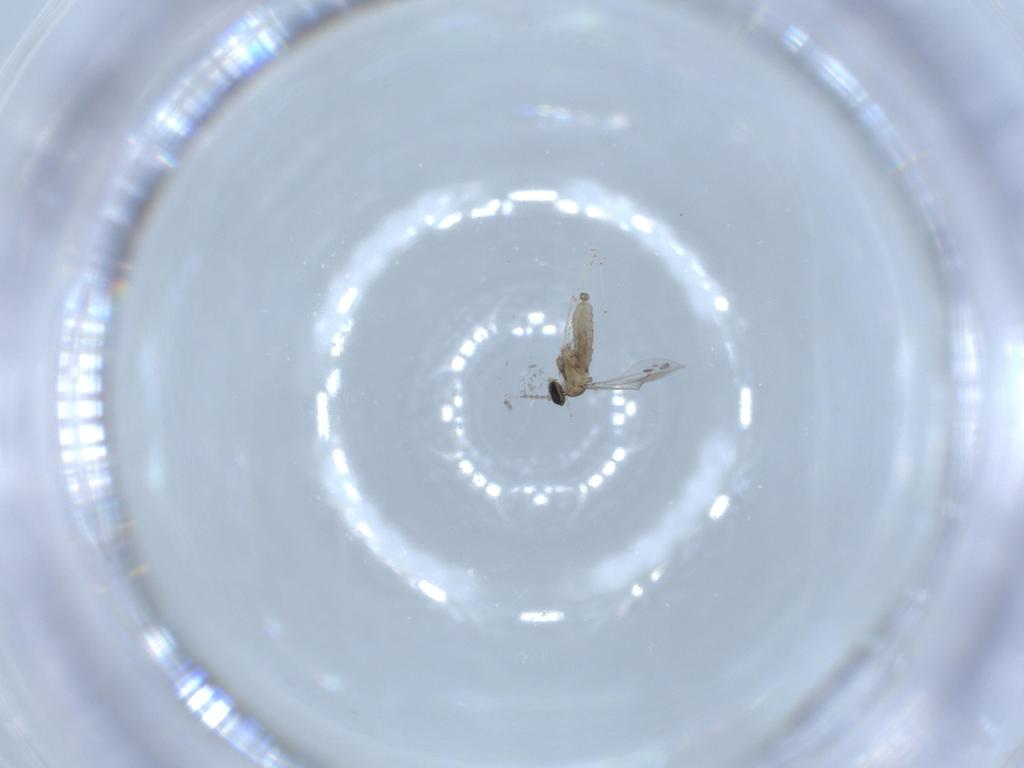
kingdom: Animalia
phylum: Arthropoda
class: Insecta
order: Diptera
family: Cecidomyiidae
